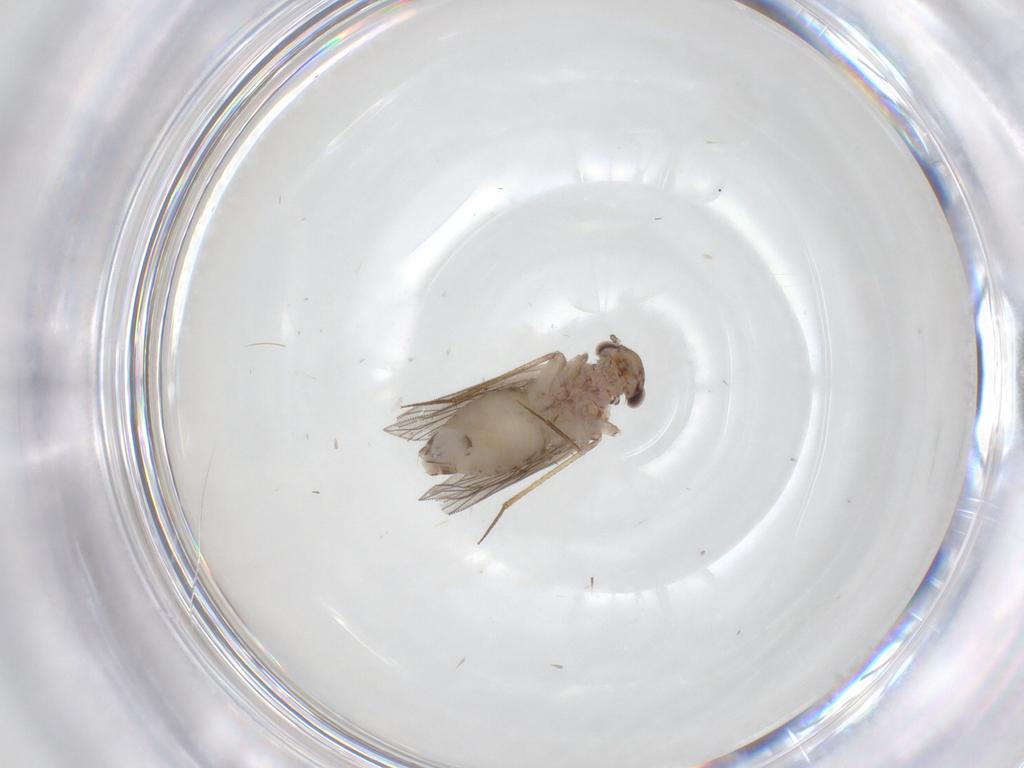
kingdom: Animalia
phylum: Arthropoda
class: Insecta
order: Psocodea
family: Lepidopsocidae
